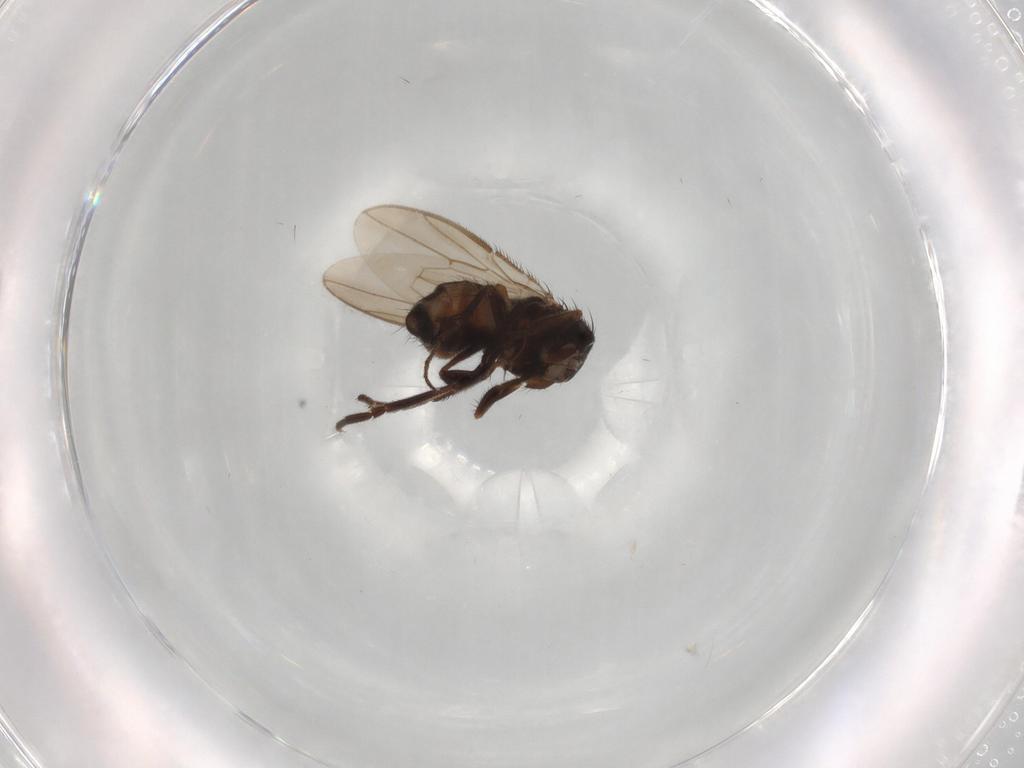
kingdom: Animalia
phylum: Arthropoda
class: Insecta
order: Diptera
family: Sphaeroceridae
